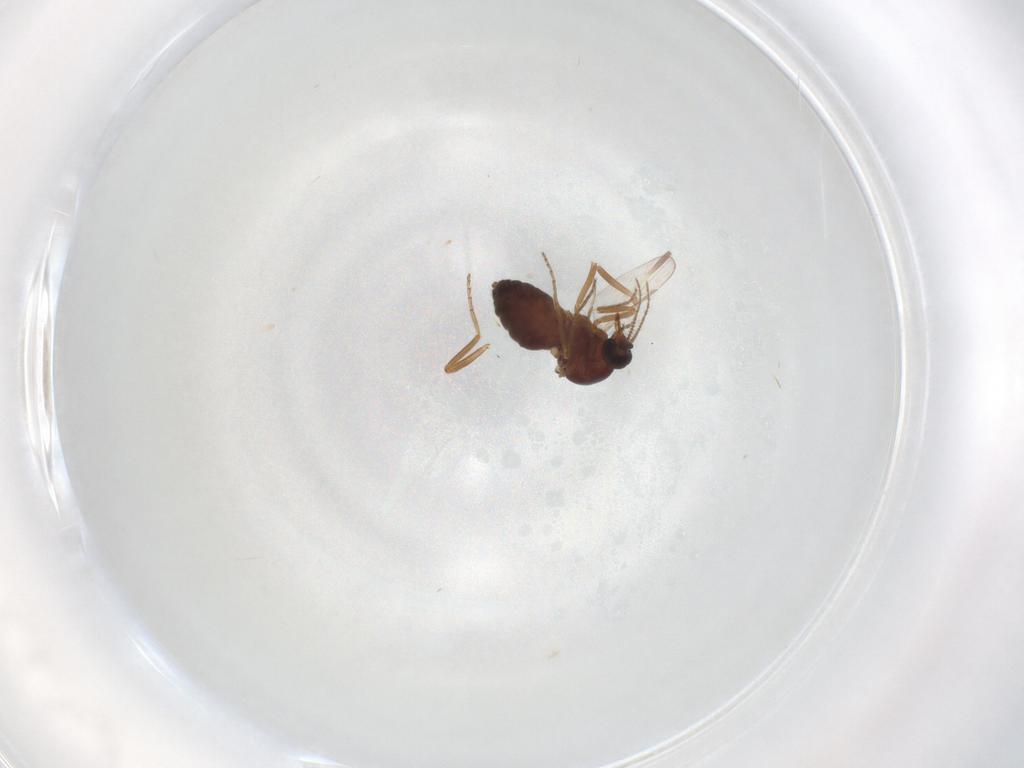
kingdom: Animalia
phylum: Arthropoda
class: Insecta
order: Diptera
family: Ceratopogonidae
